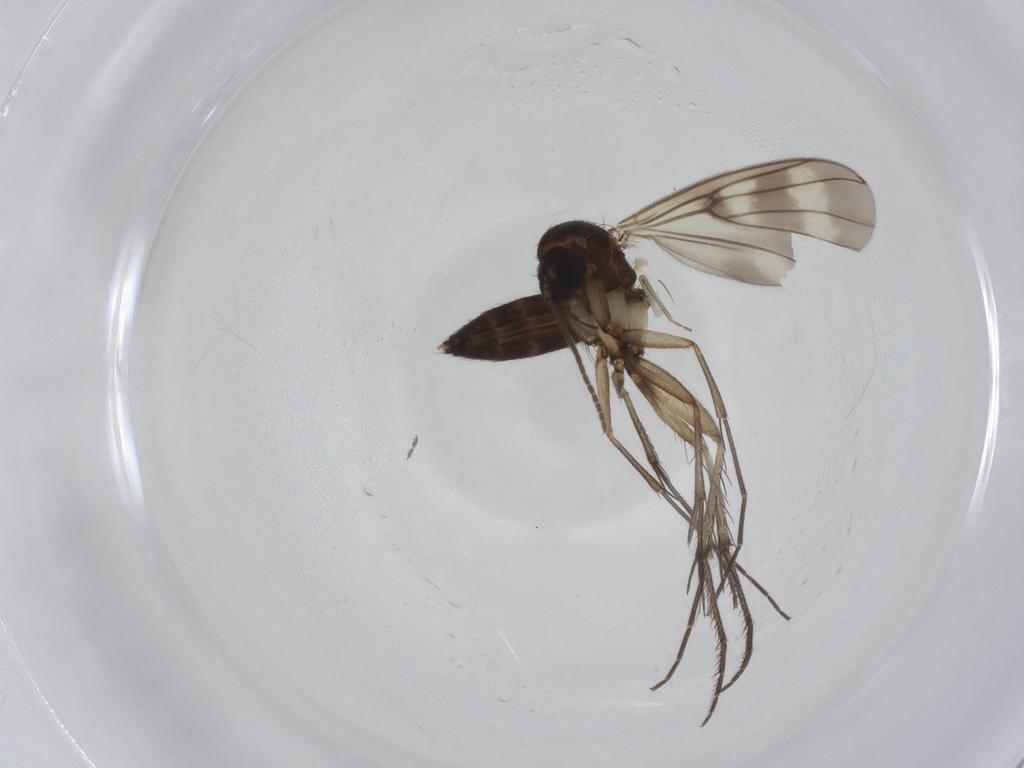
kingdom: Animalia
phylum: Arthropoda
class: Insecta
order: Diptera
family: Mycetophilidae
